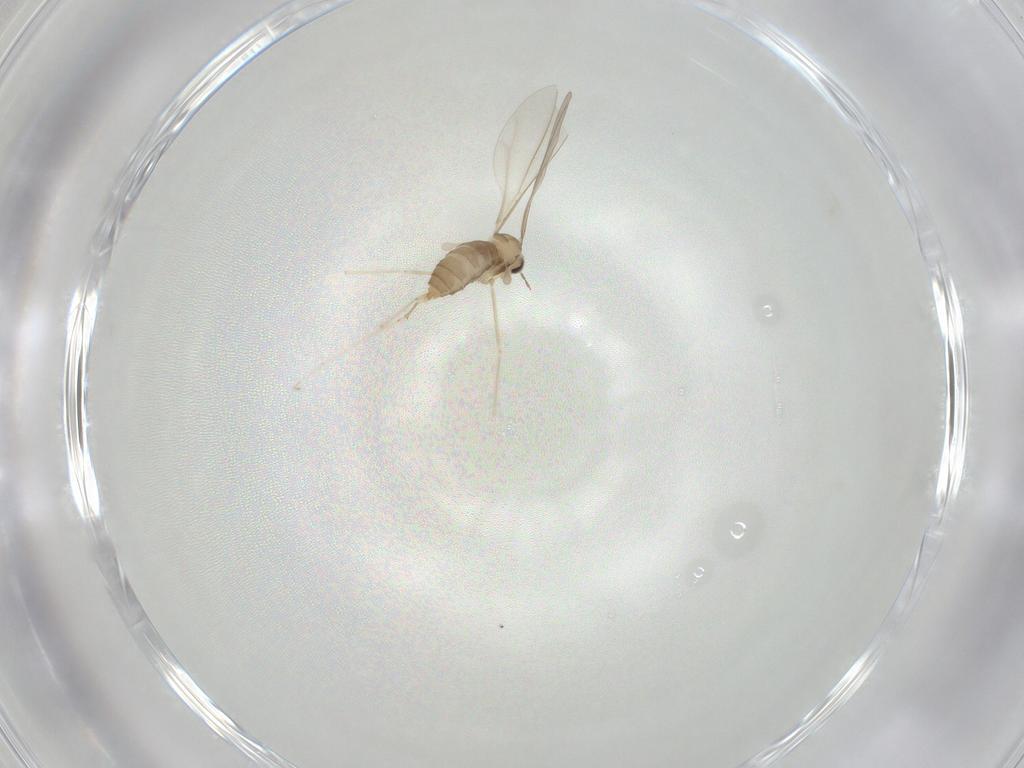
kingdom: Animalia
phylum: Arthropoda
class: Insecta
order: Diptera
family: Cecidomyiidae
